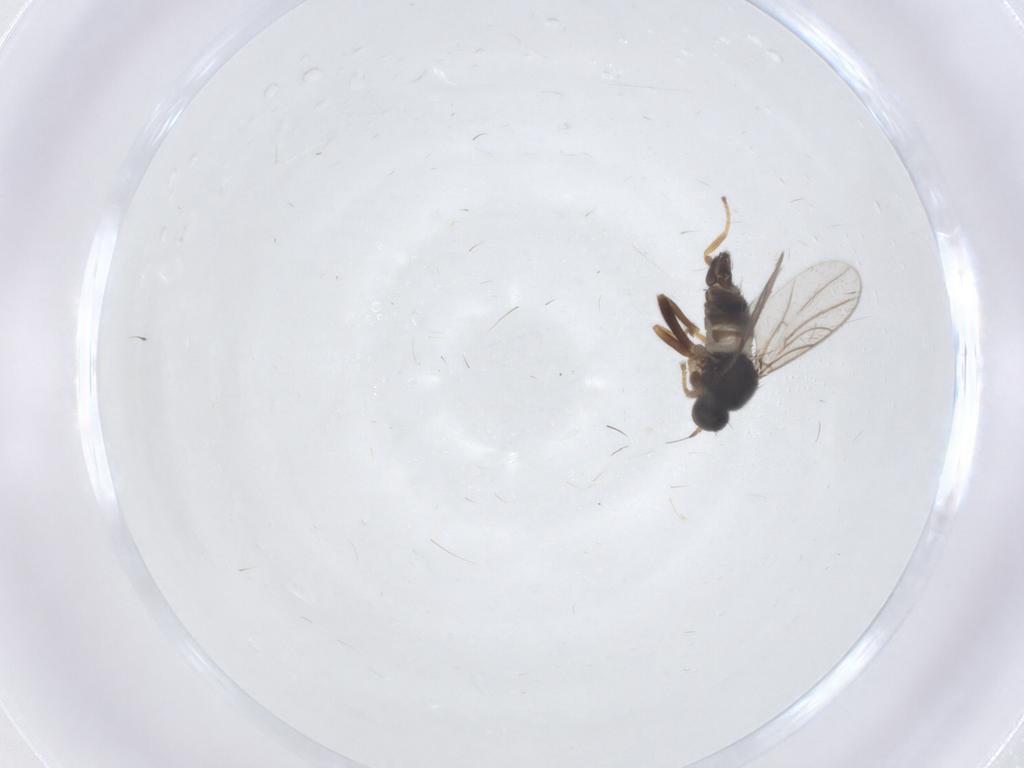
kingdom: Animalia
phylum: Arthropoda
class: Insecta
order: Diptera
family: Hybotidae
